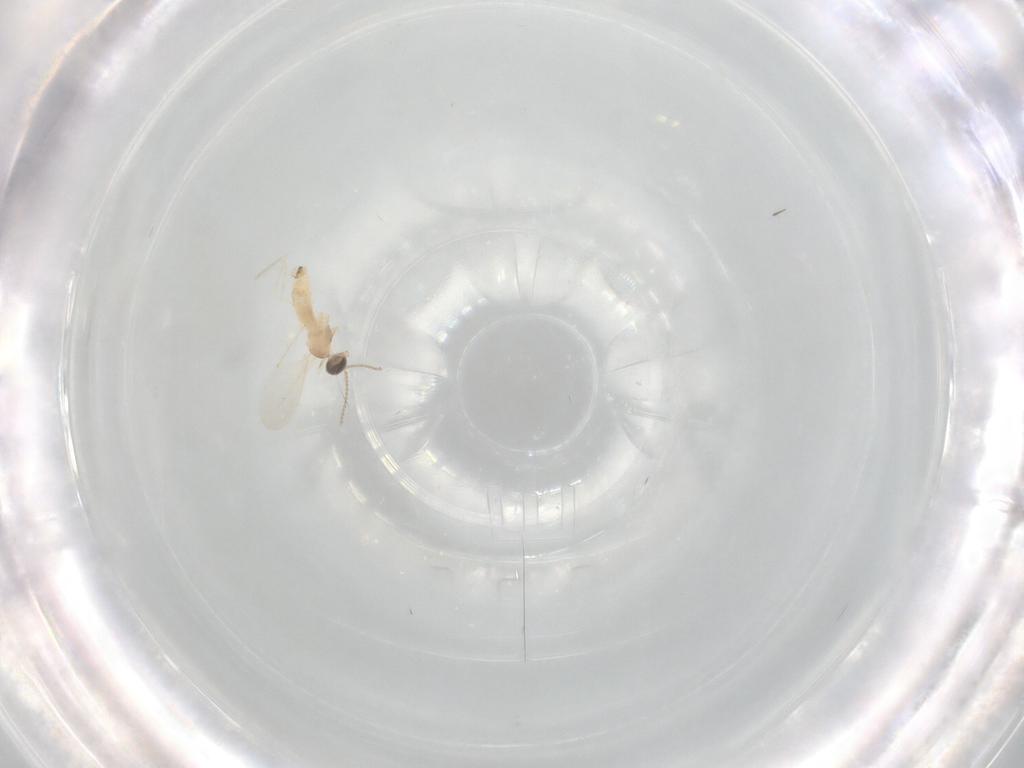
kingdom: Animalia
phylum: Arthropoda
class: Insecta
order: Diptera
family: Cecidomyiidae
